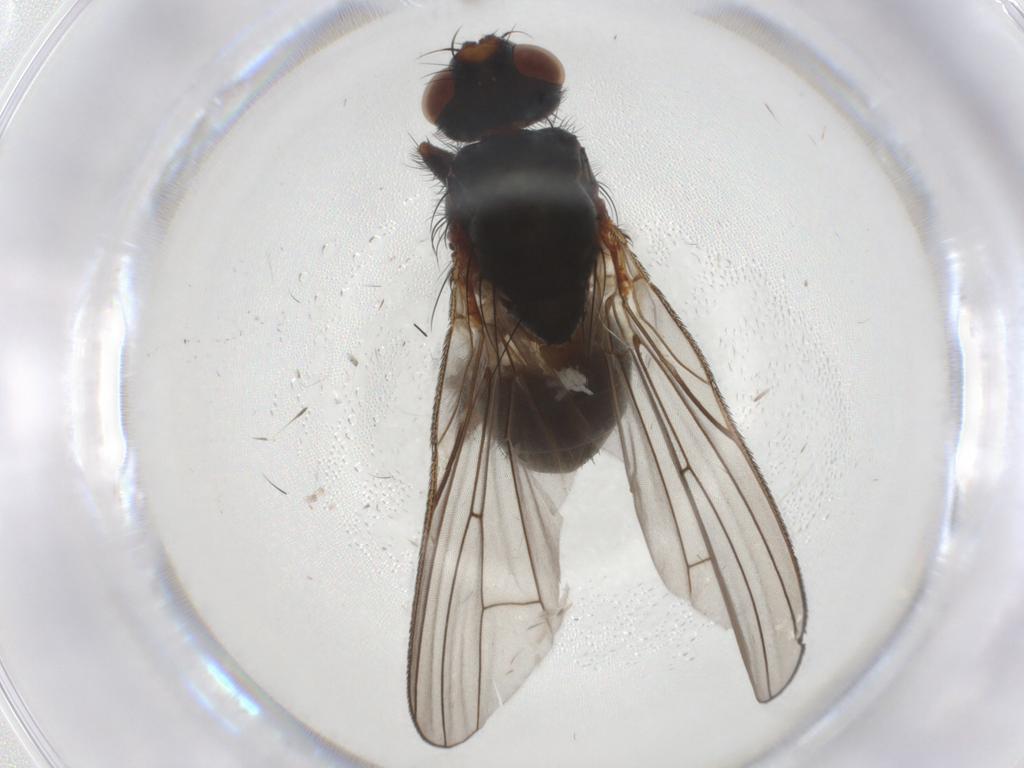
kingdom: Animalia
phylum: Arthropoda
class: Insecta
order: Diptera
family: Anthomyiidae
